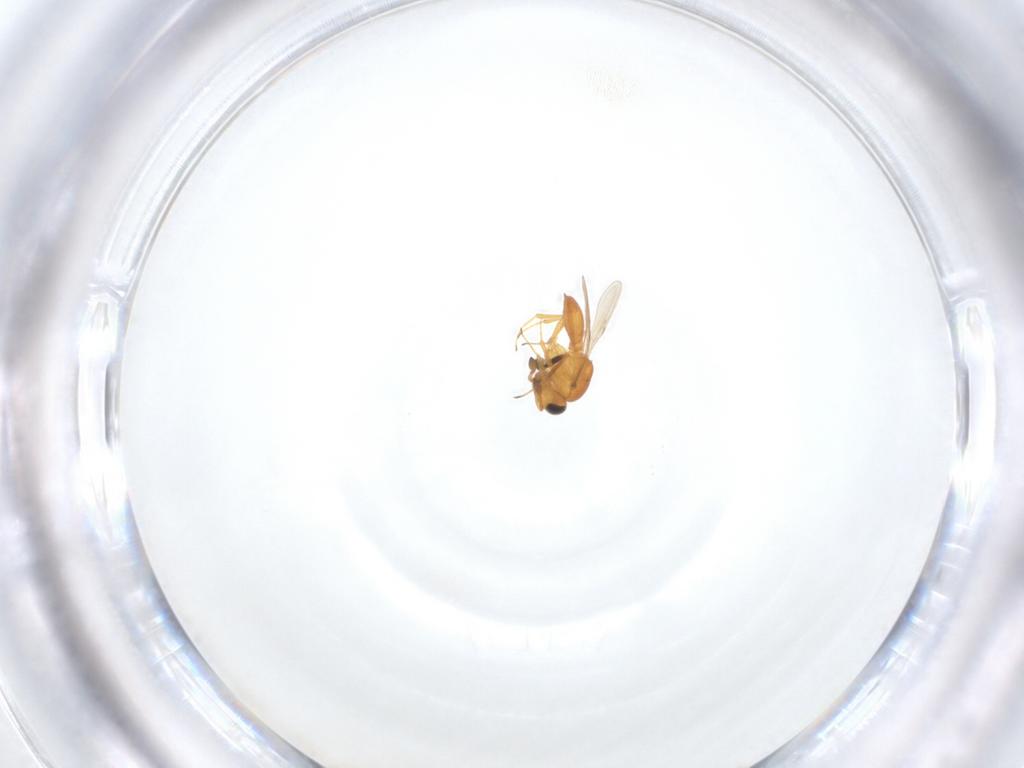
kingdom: Animalia
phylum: Arthropoda
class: Insecta
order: Hymenoptera
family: Scelionidae
